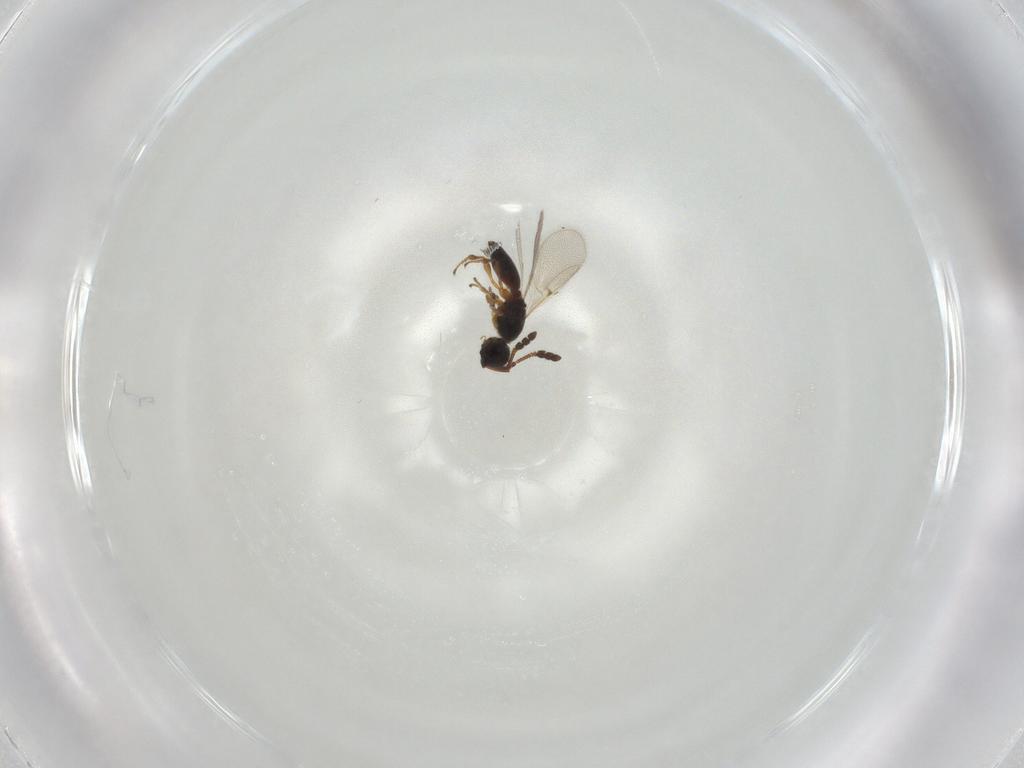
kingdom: Animalia
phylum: Arthropoda
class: Insecta
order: Hymenoptera
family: Diapriidae
